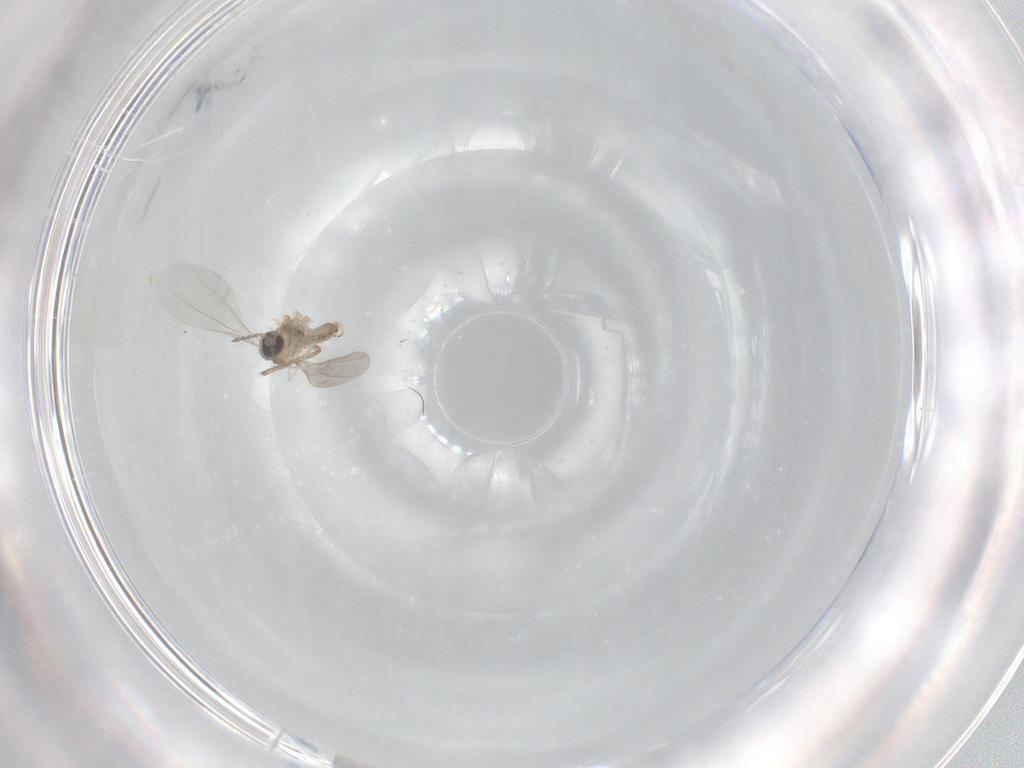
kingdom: Animalia
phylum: Arthropoda
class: Insecta
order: Diptera
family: Cecidomyiidae
